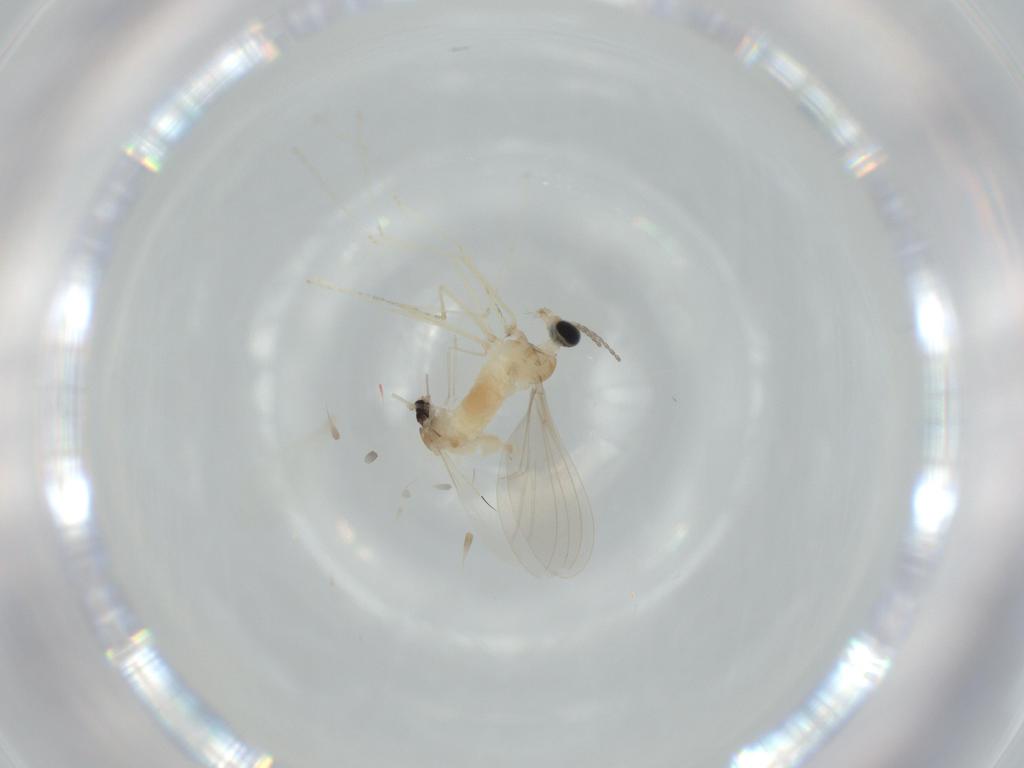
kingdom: Animalia
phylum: Arthropoda
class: Insecta
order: Diptera
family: Cecidomyiidae
